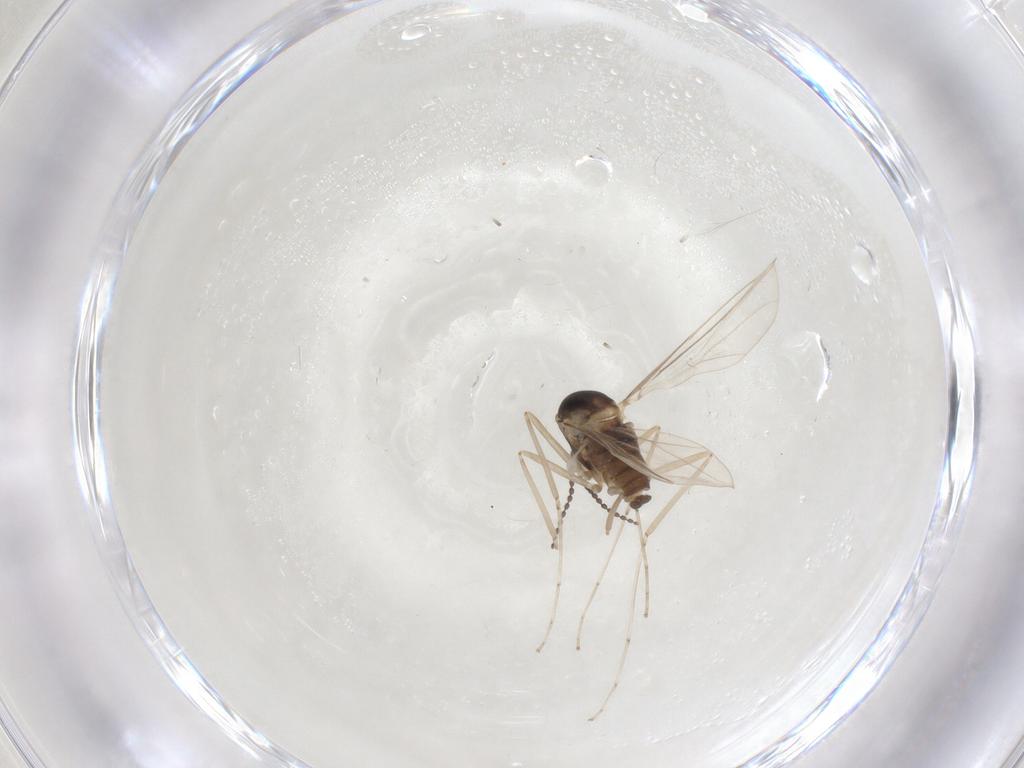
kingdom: Animalia
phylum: Arthropoda
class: Insecta
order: Diptera
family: Cecidomyiidae
